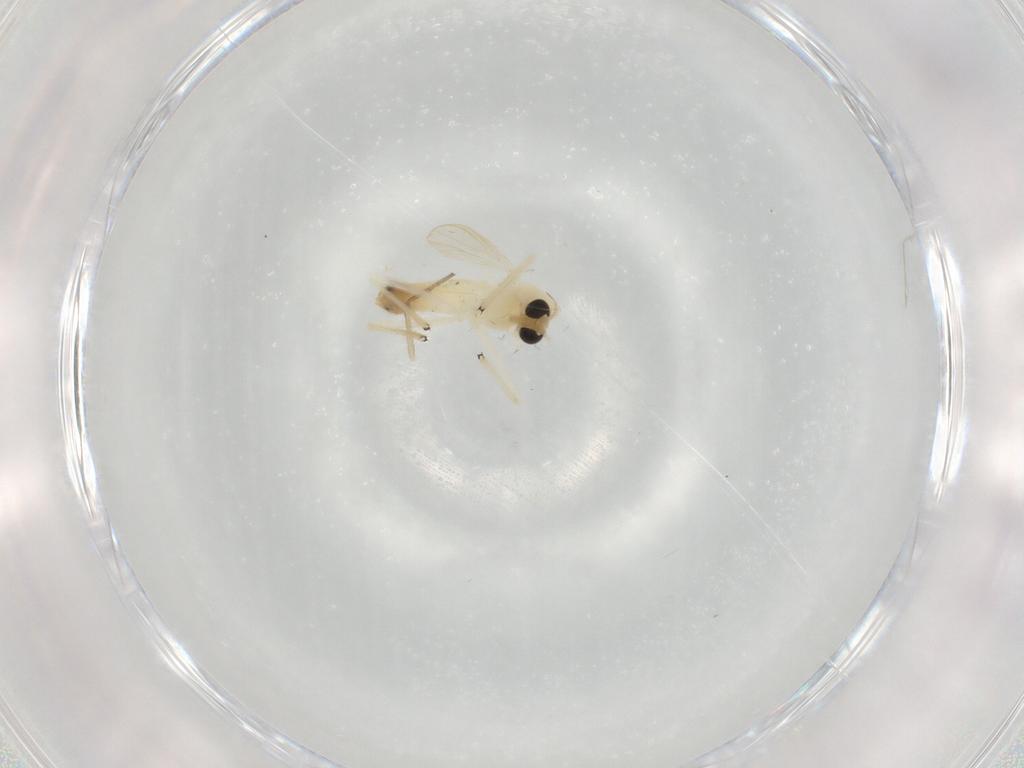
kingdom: Animalia
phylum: Arthropoda
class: Insecta
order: Diptera
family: Chironomidae
